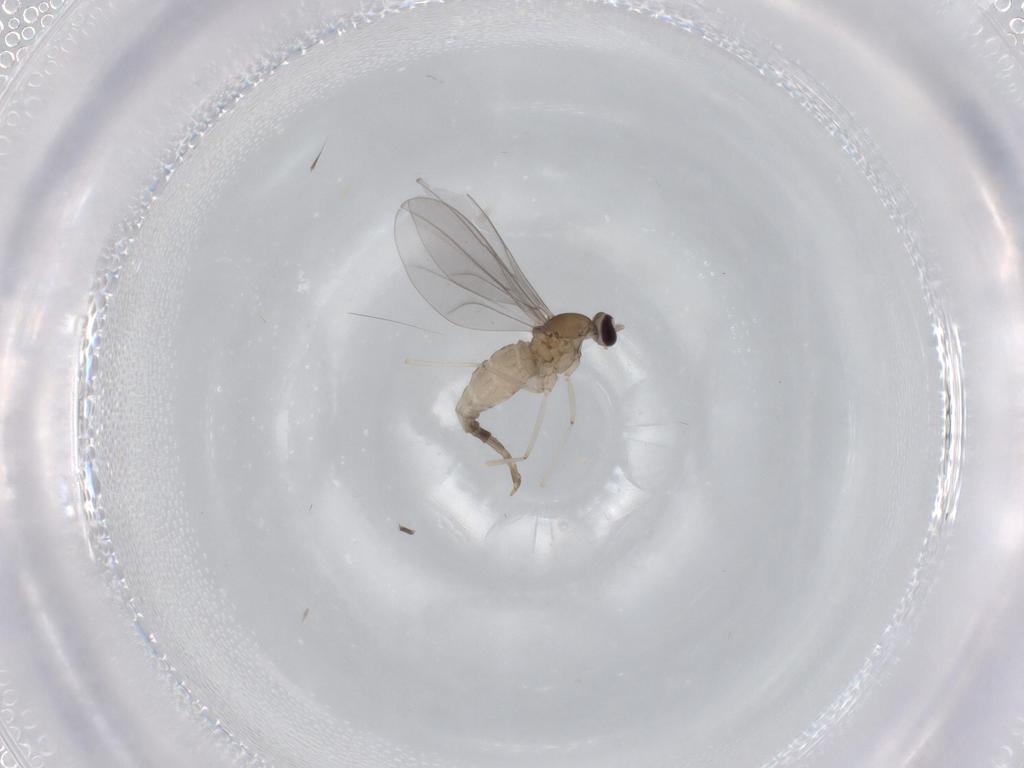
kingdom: Animalia
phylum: Arthropoda
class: Insecta
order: Diptera
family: Cecidomyiidae
